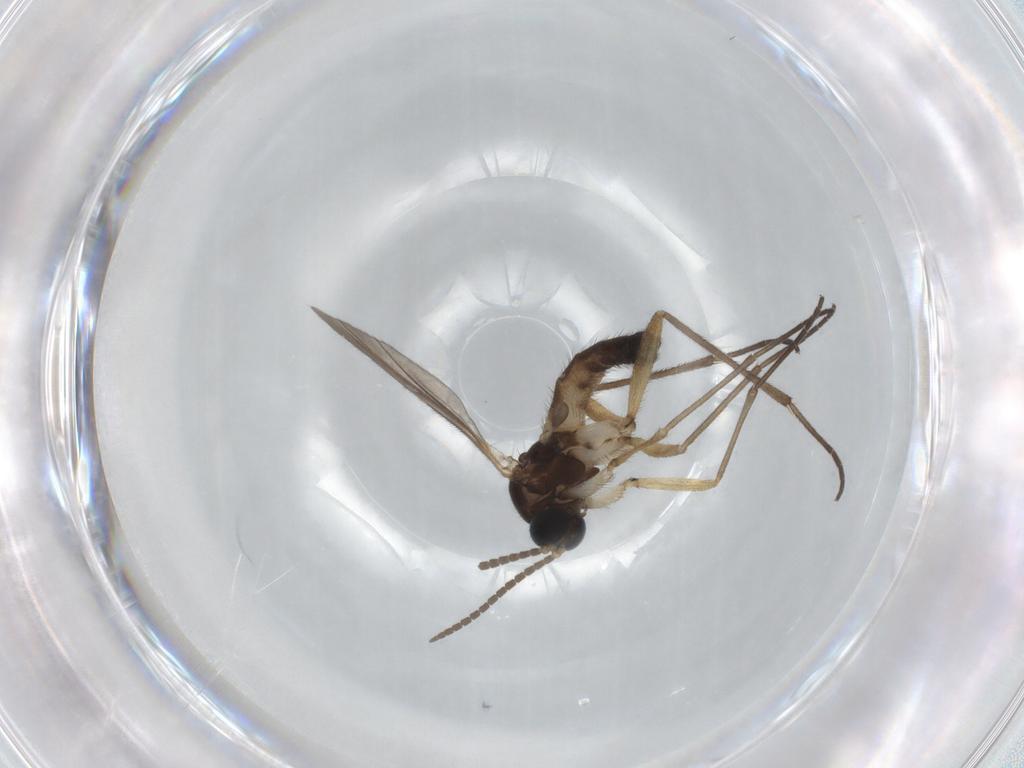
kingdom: Animalia
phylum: Arthropoda
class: Insecta
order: Diptera
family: Sciaridae
